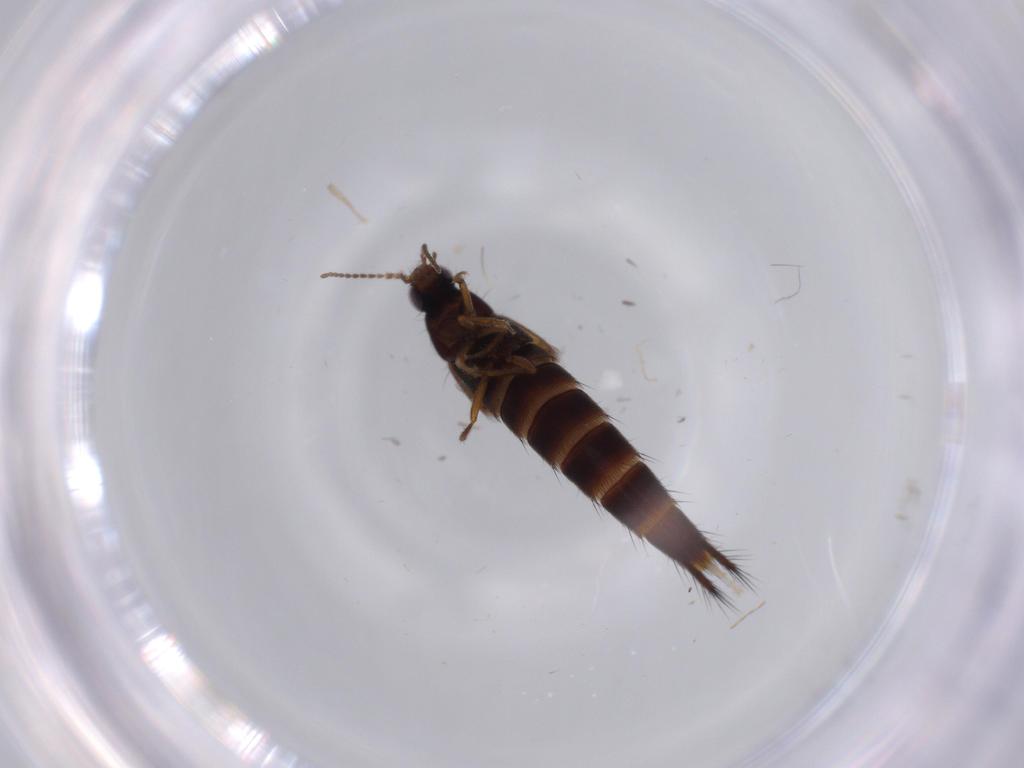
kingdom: Animalia
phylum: Arthropoda
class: Insecta
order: Coleoptera
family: Staphylinidae
